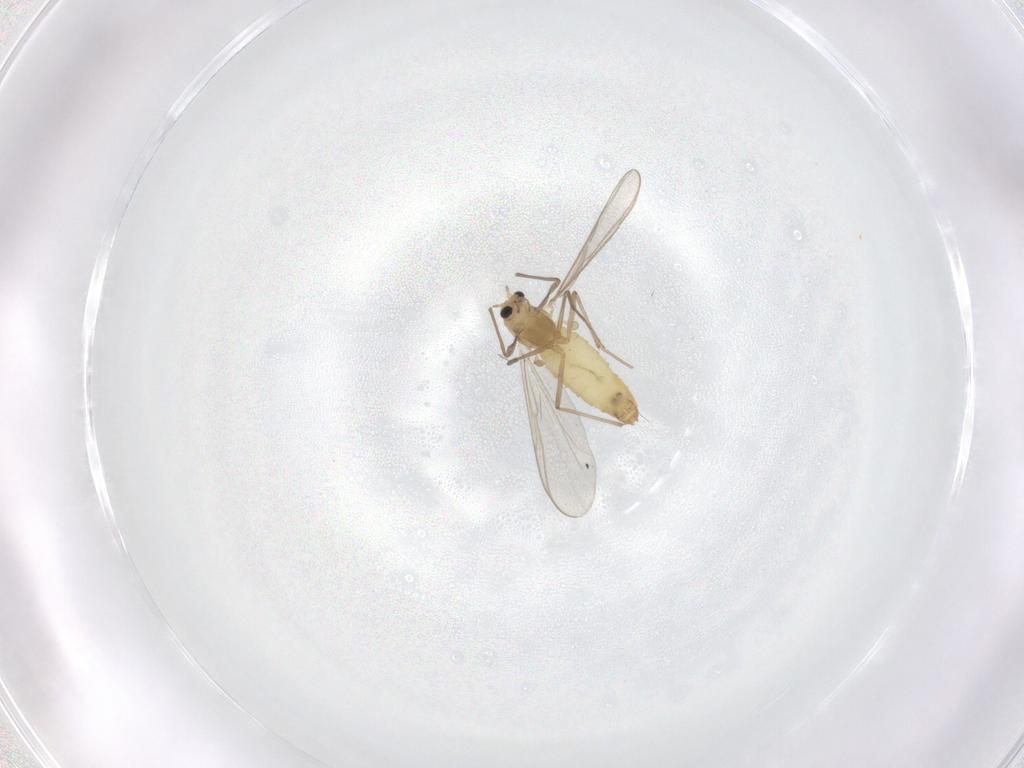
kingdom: Animalia
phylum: Arthropoda
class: Insecta
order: Diptera
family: Chironomidae
